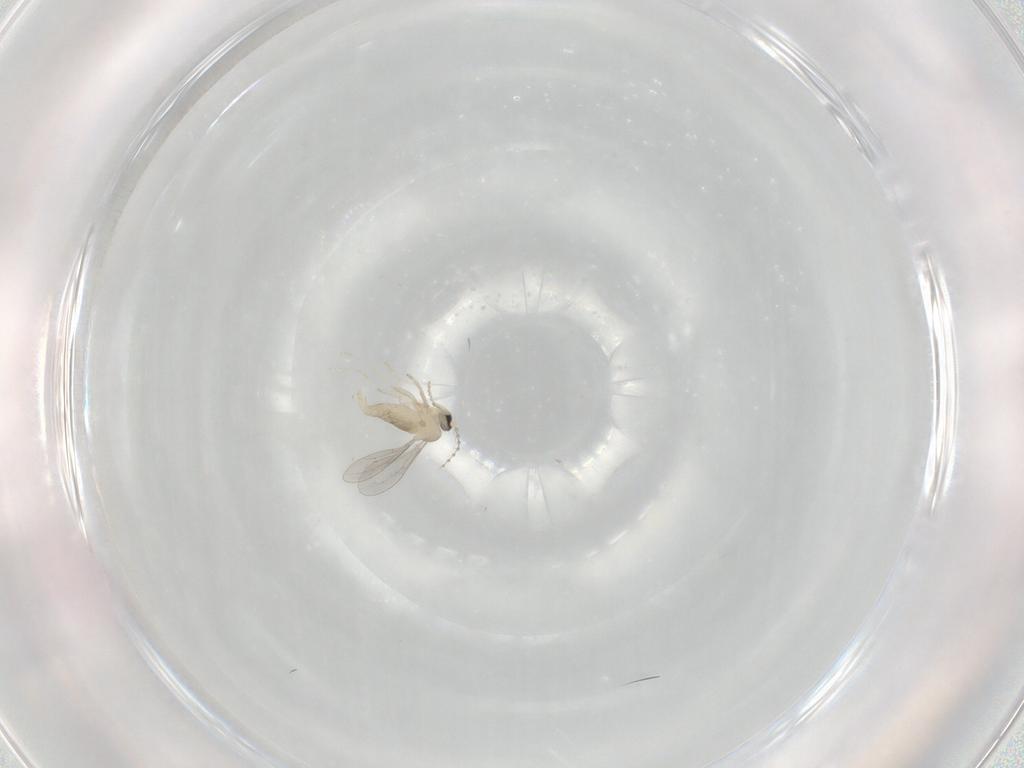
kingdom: Animalia
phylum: Arthropoda
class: Insecta
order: Diptera
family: Cecidomyiidae
